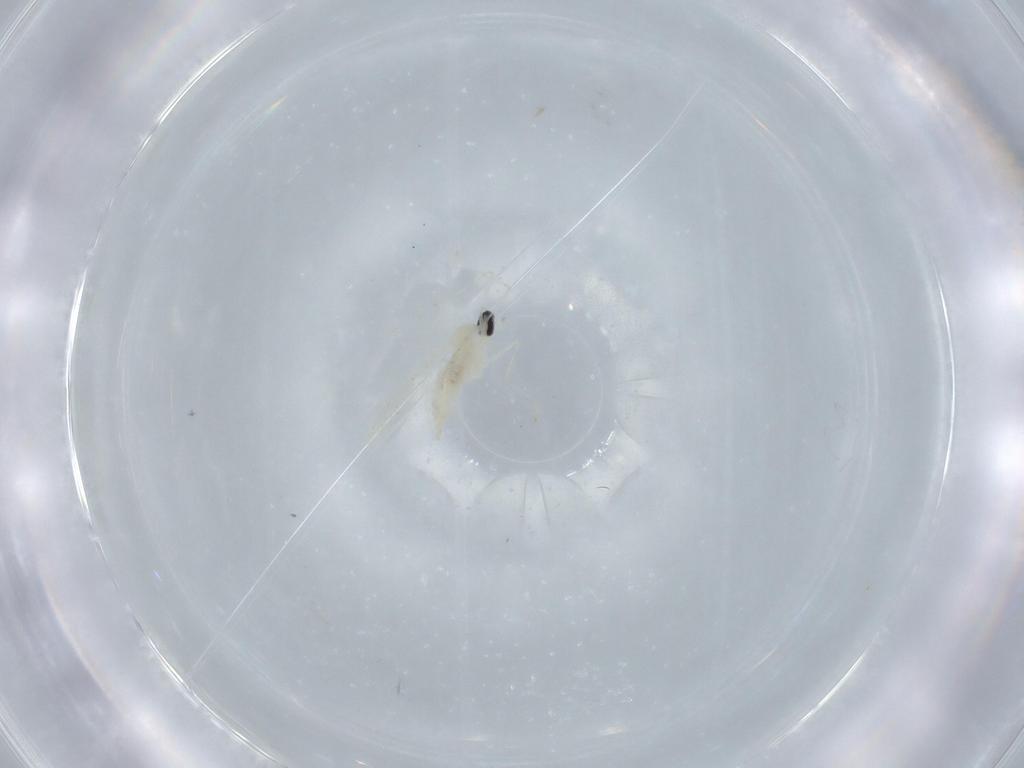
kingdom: Animalia
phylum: Arthropoda
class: Insecta
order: Diptera
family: Cecidomyiidae
